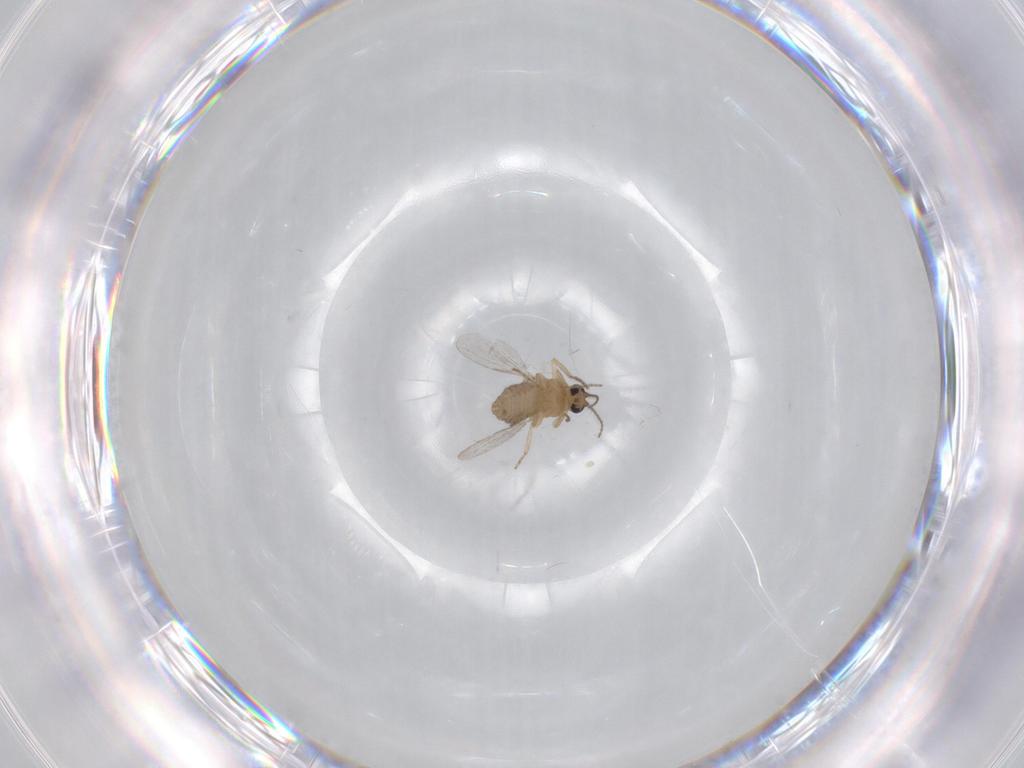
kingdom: Animalia
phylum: Arthropoda
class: Insecta
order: Diptera
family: Ceratopogonidae
